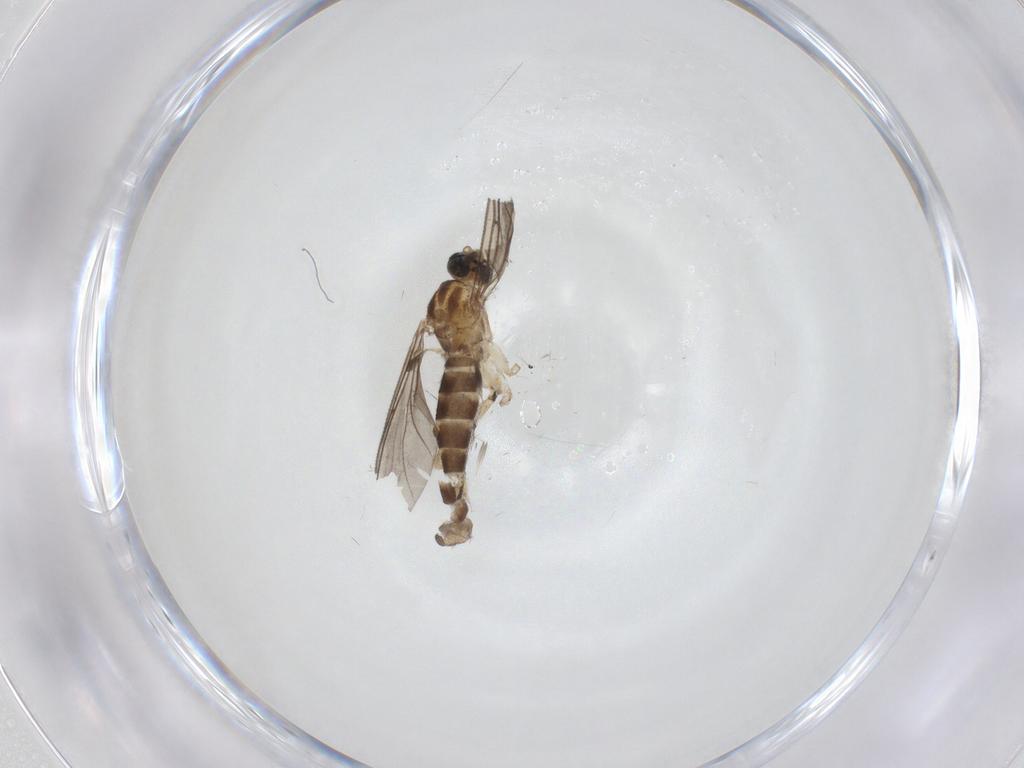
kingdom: Animalia
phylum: Arthropoda
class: Insecta
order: Diptera
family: Sciaridae
